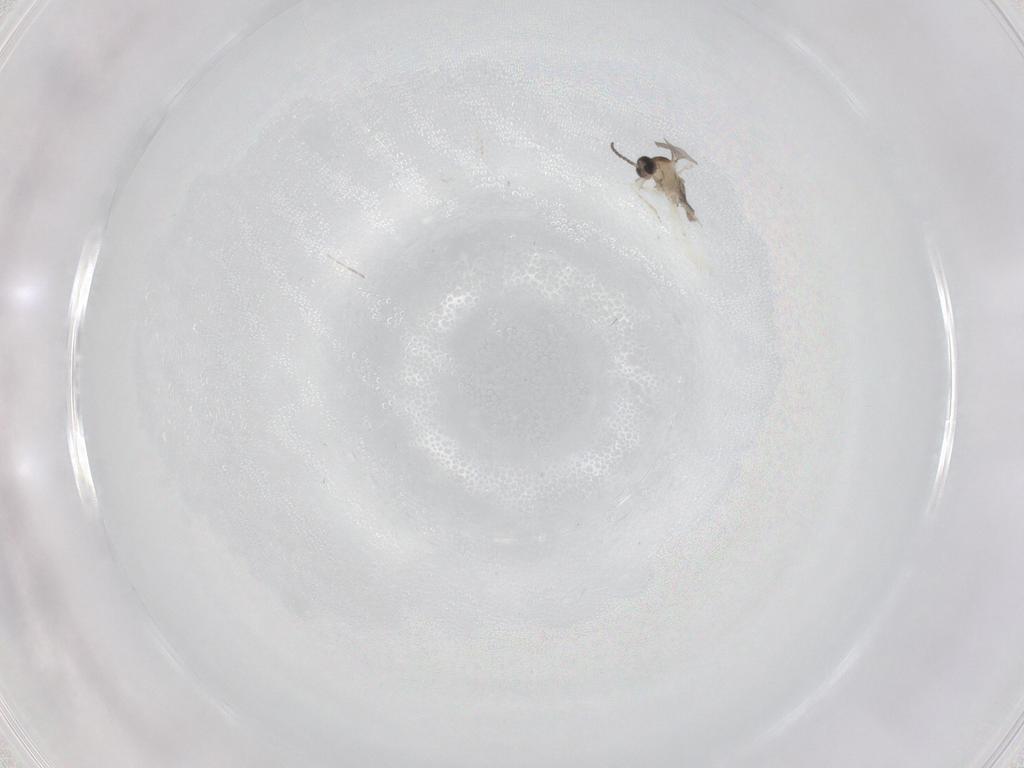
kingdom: Animalia
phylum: Arthropoda
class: Insecta
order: Diptera
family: Cecidomyiidae
